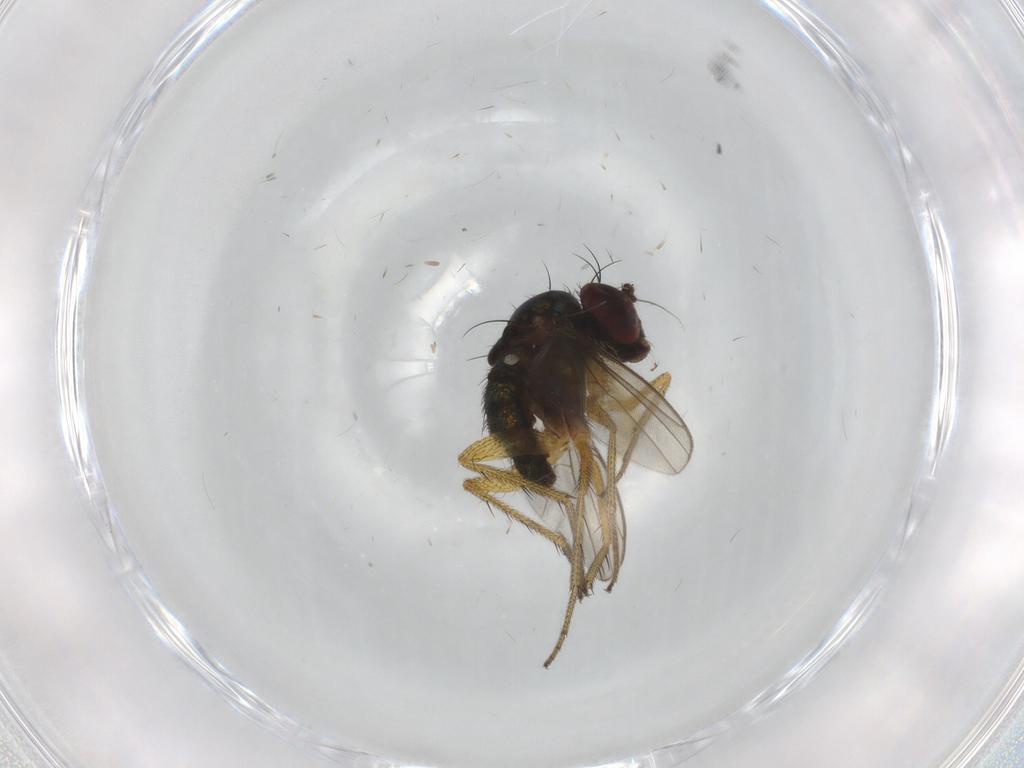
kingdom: Animalia
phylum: Arthropoda
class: Insecta
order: Diptera
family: Chironomidae
